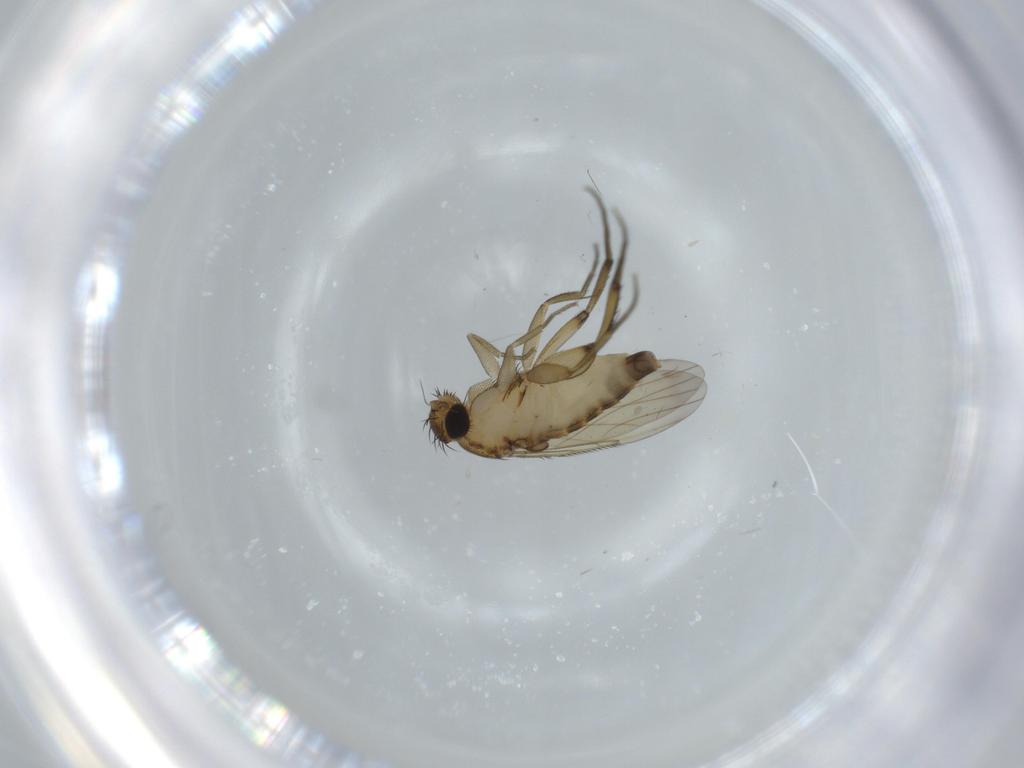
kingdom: Animalia
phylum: Arthropoda
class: Insecta
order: Diptera
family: Phoridae
